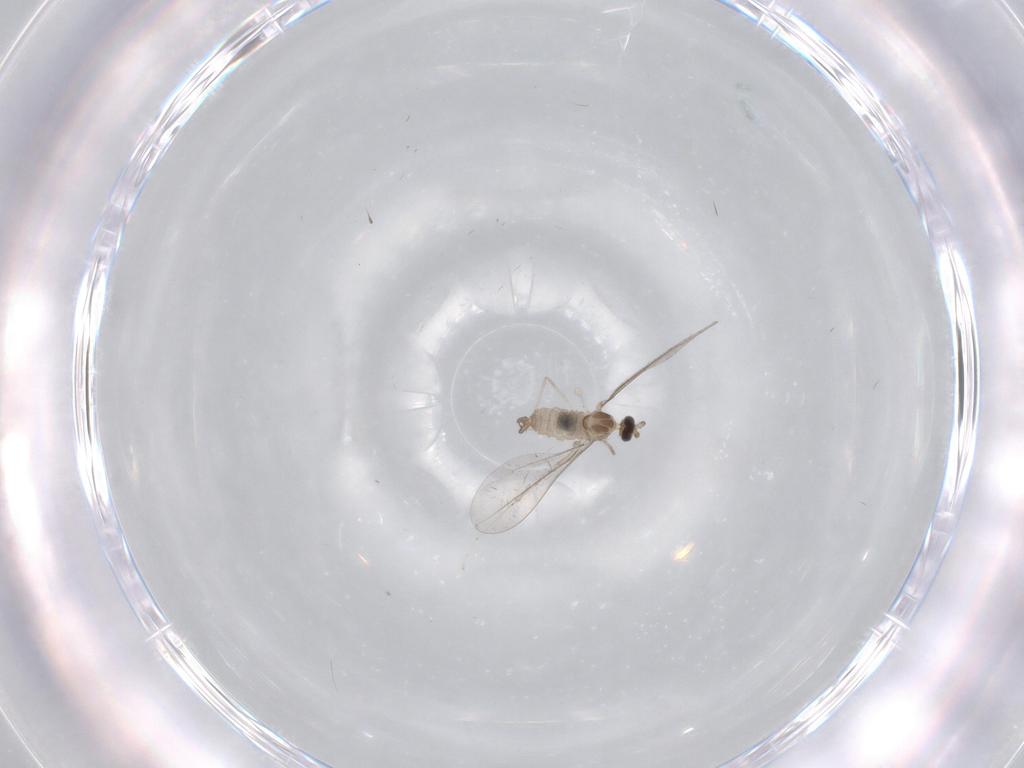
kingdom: Animalia
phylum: Arthropoda
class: Insecta
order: Diptera
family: Cecidomyiidae
